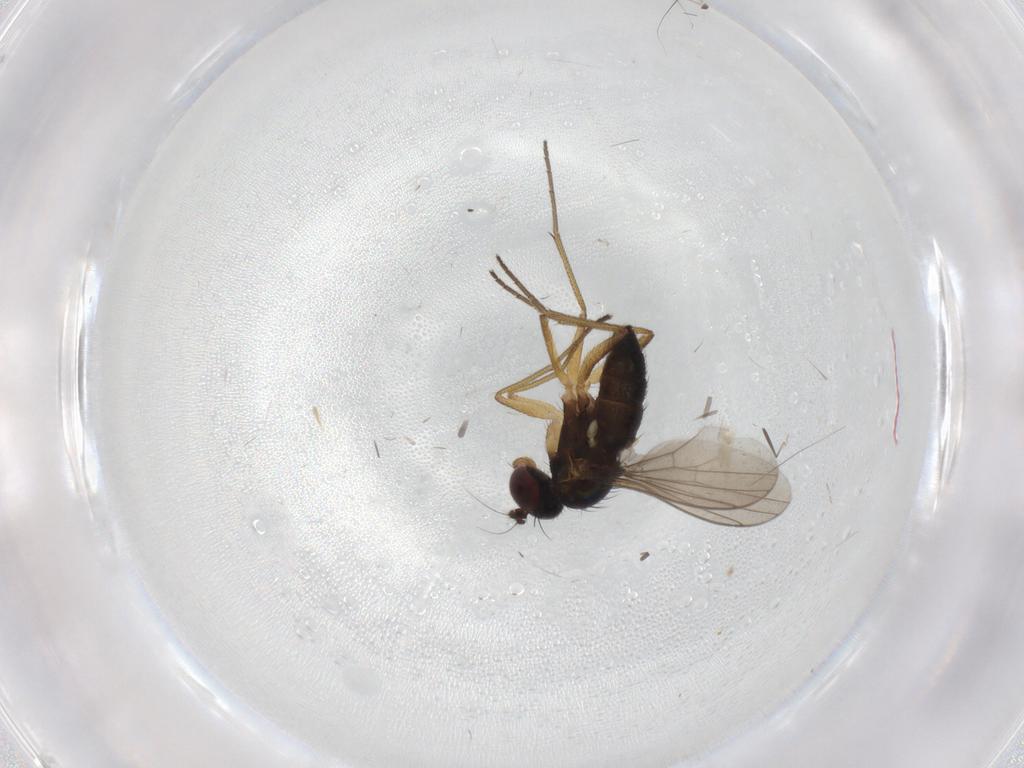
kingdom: Animalia
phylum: Arthropoda
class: Insecta
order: Diptera
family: Dolichopodidae
